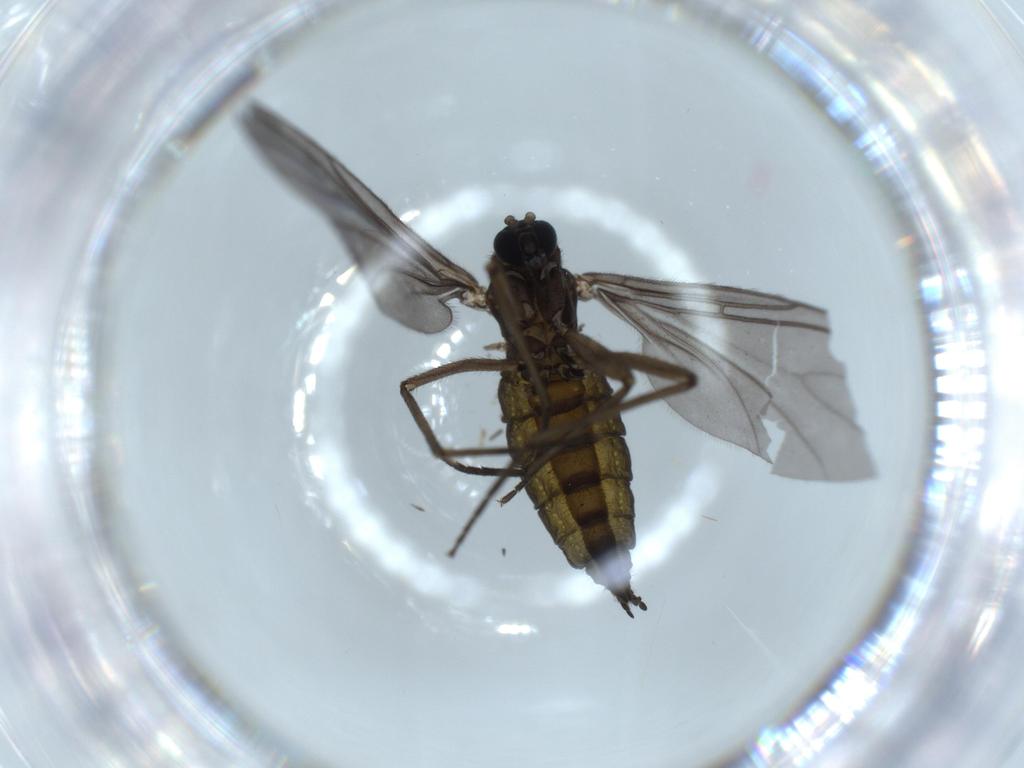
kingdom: Animalia
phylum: Arthropoda
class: Insecta
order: Diptera
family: Sciaridae
